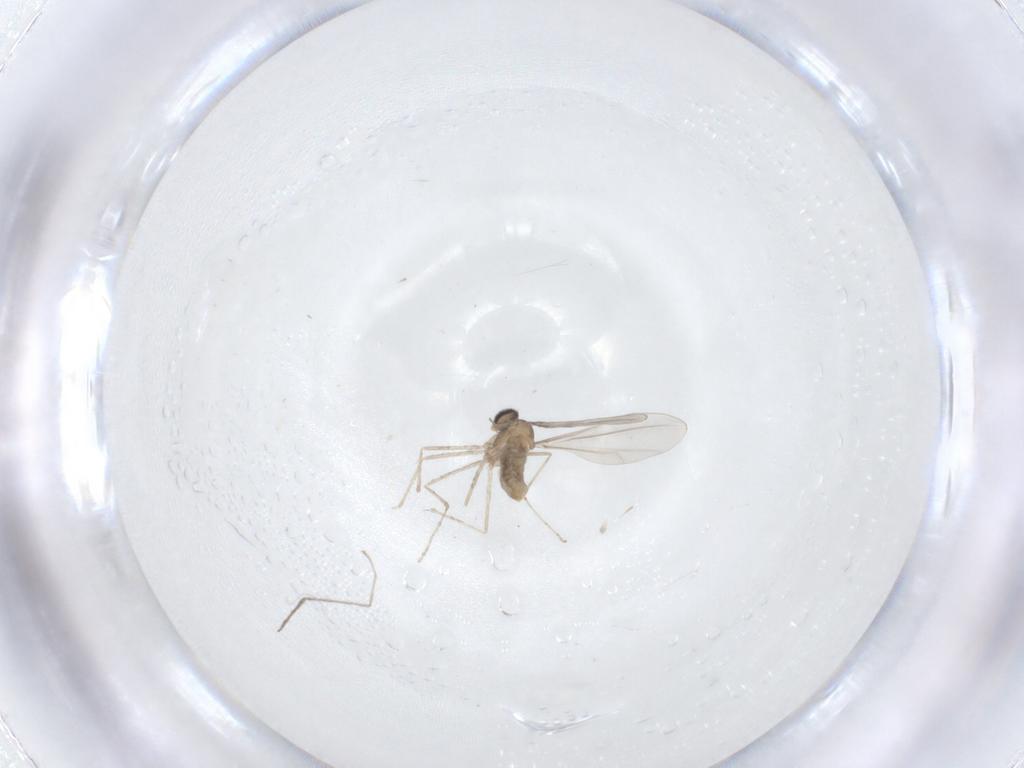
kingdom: Animalia
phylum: Arthropoda
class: Insecta
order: Diptera
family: Cecidomyiidae
